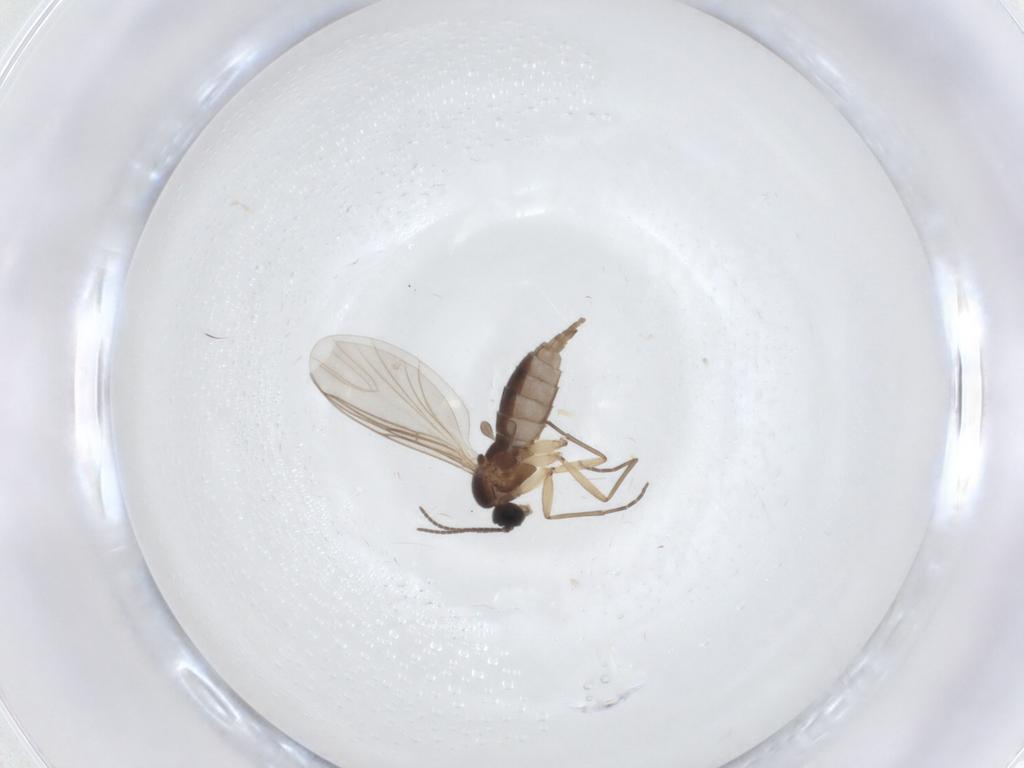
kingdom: Animalia
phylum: Arthropoda
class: Insecta
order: Diptera
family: Sciaridae
